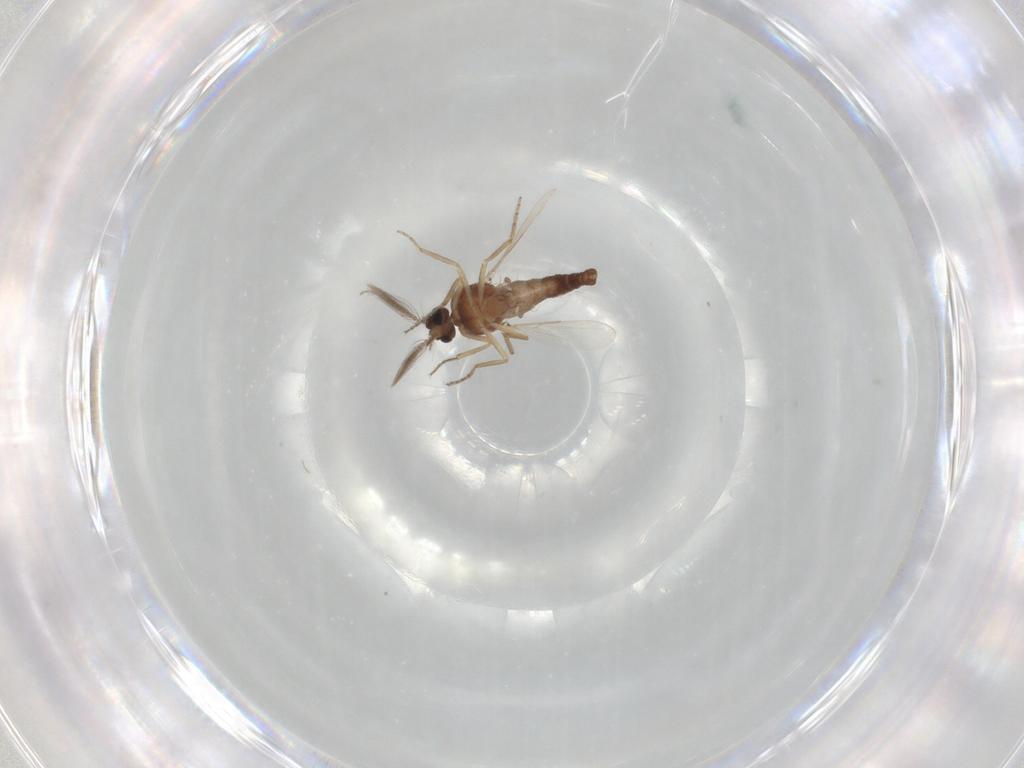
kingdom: Animalia
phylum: Arthropoda
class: Insecta
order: Diptera
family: Ceratopogonidae
